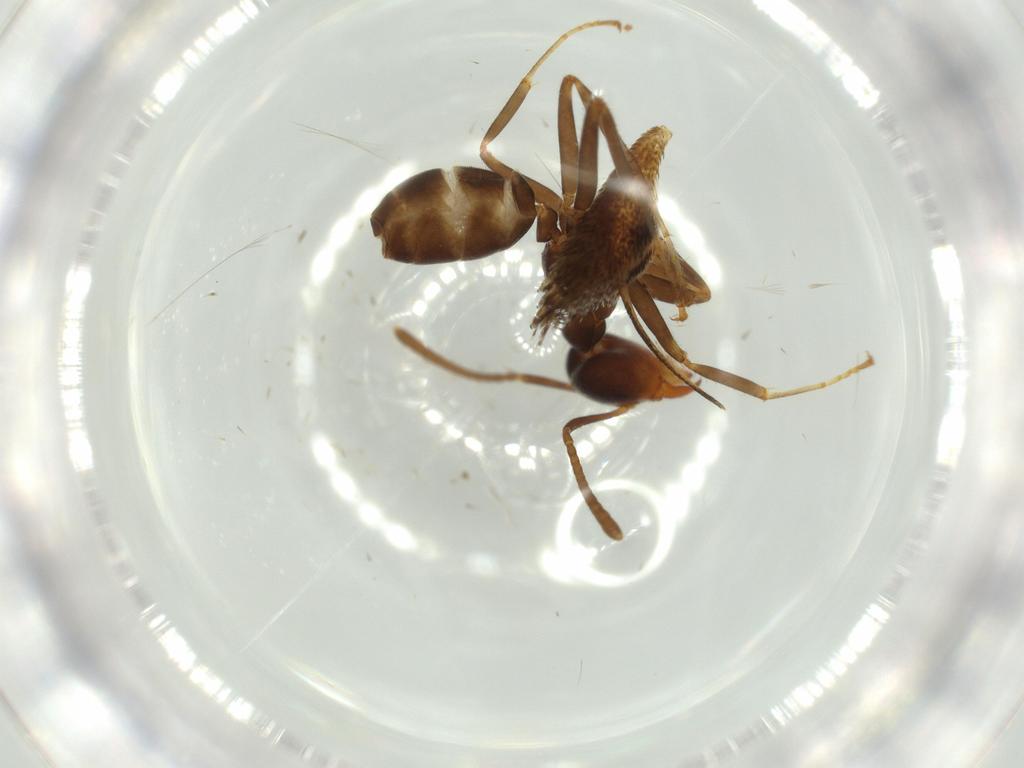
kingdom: Animalia
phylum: Arthropoda
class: Insecta
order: Hymenoptera
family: Formicidae
